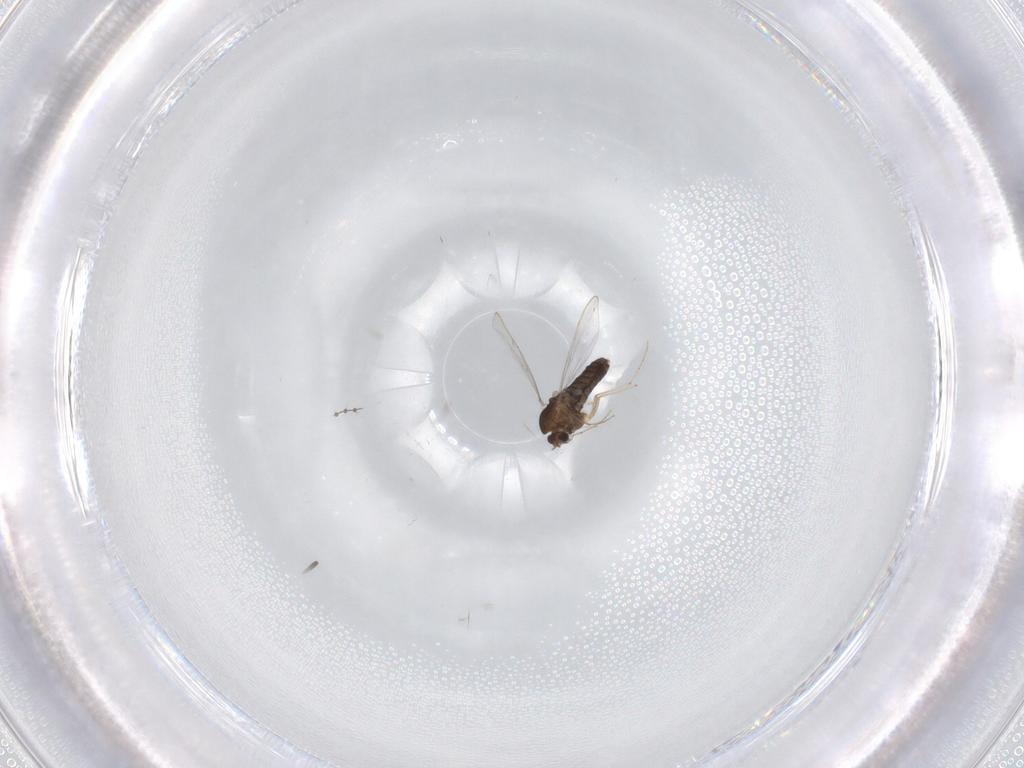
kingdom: Animalia
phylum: Arthropoda
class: Insecta
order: Diptera
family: Chironomidae
